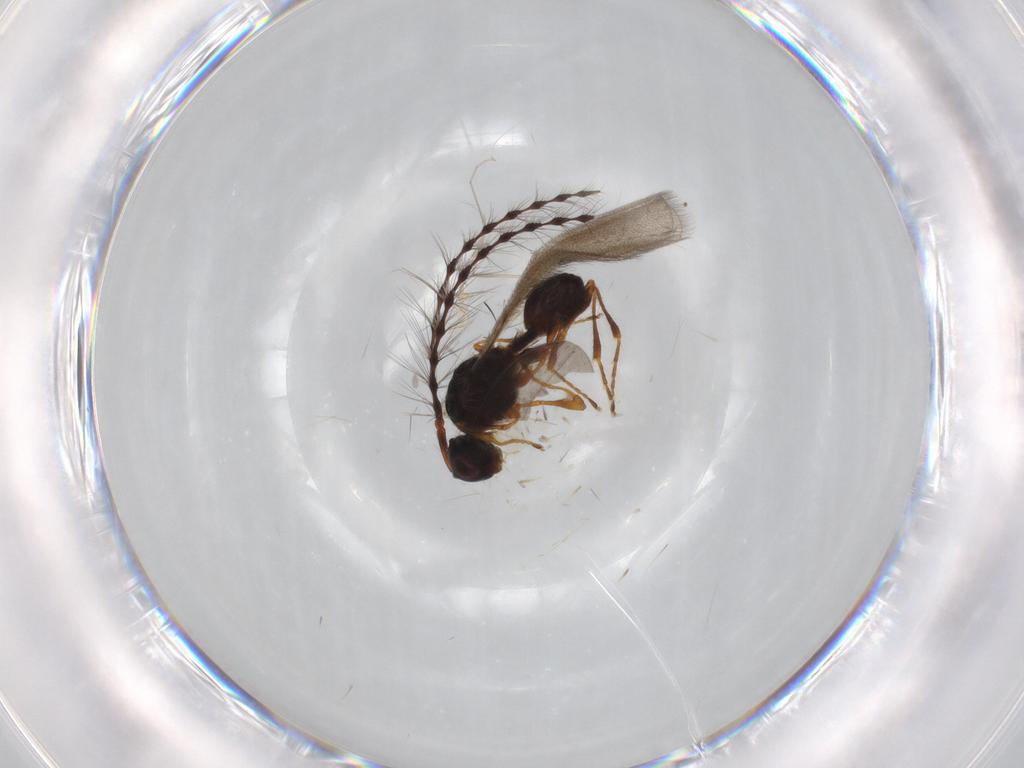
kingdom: Animalia
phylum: Arthropoda
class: Insecta
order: Hymenoptera
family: Diapriidae
